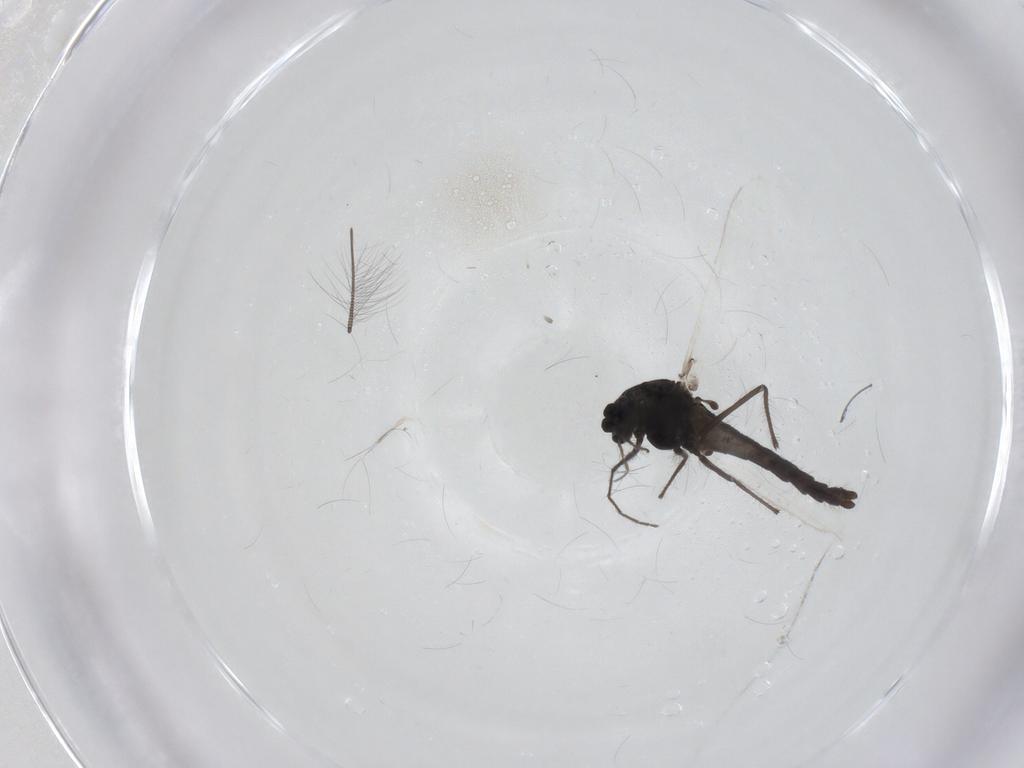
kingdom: Animalia
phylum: Arthropoda
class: Insecta
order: Diptera
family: Chironomidae
